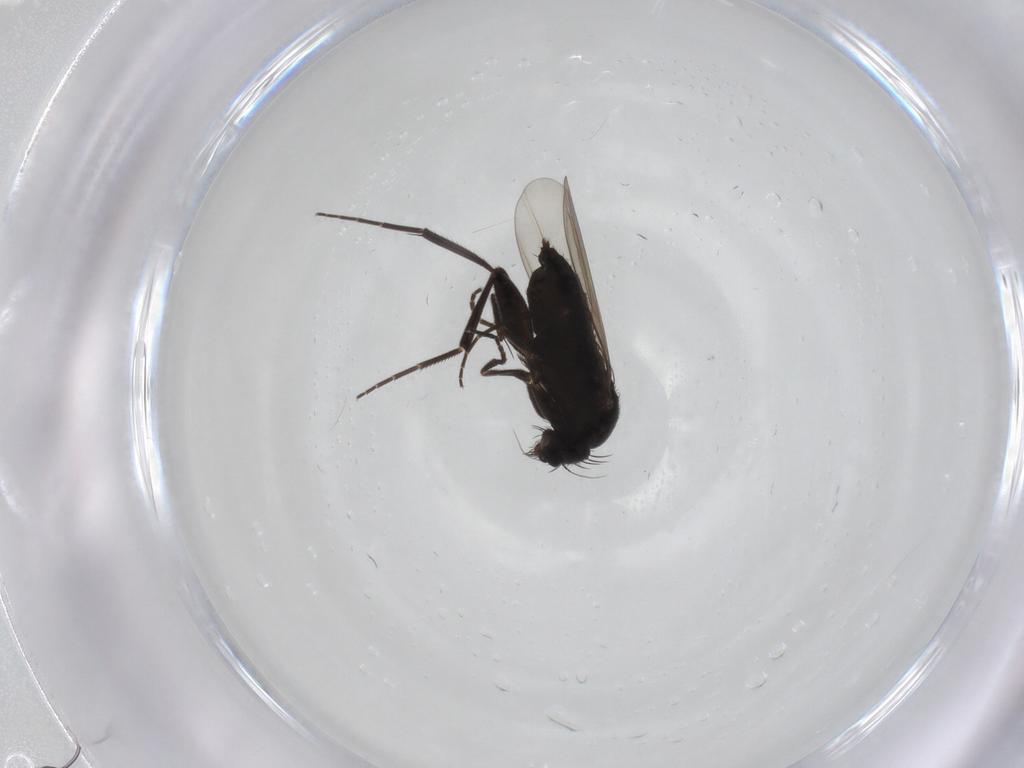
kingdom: Animalia
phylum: Arthropoda
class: Insecta
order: Diptera
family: Phoridae
